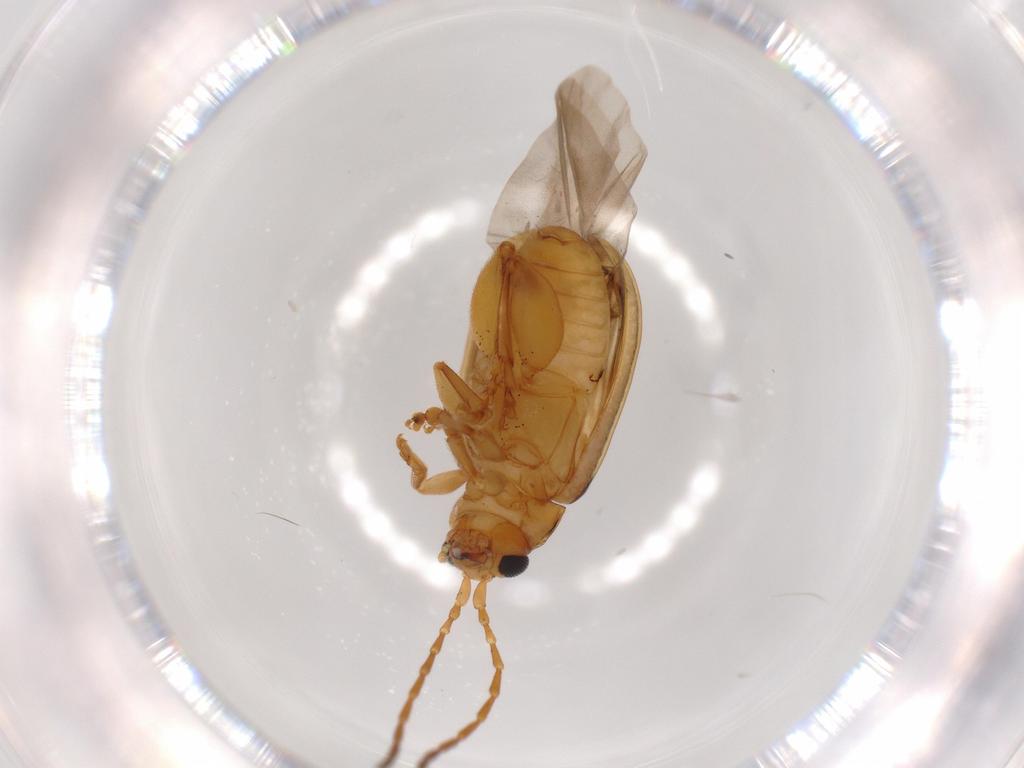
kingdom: Animalia
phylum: Arthropoda
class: Insecta
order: Coleoptera
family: Chrysomelidae
